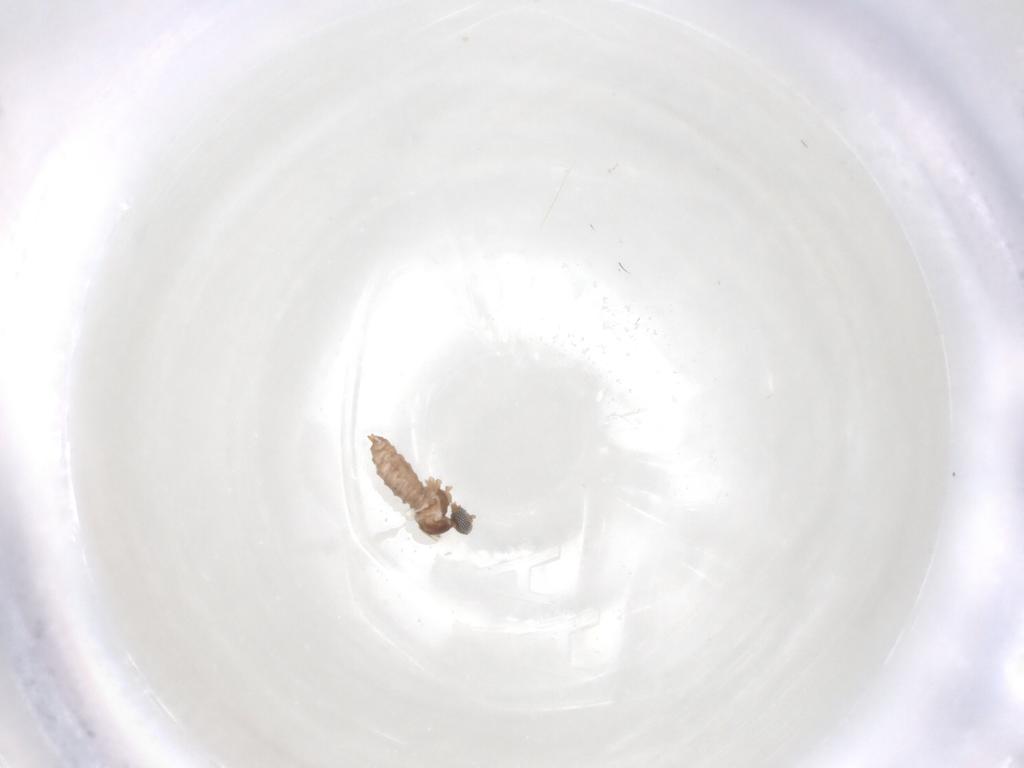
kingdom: Animalia
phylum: Arthropoda
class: Insecta
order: Diptera
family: Cecidomyiidae
